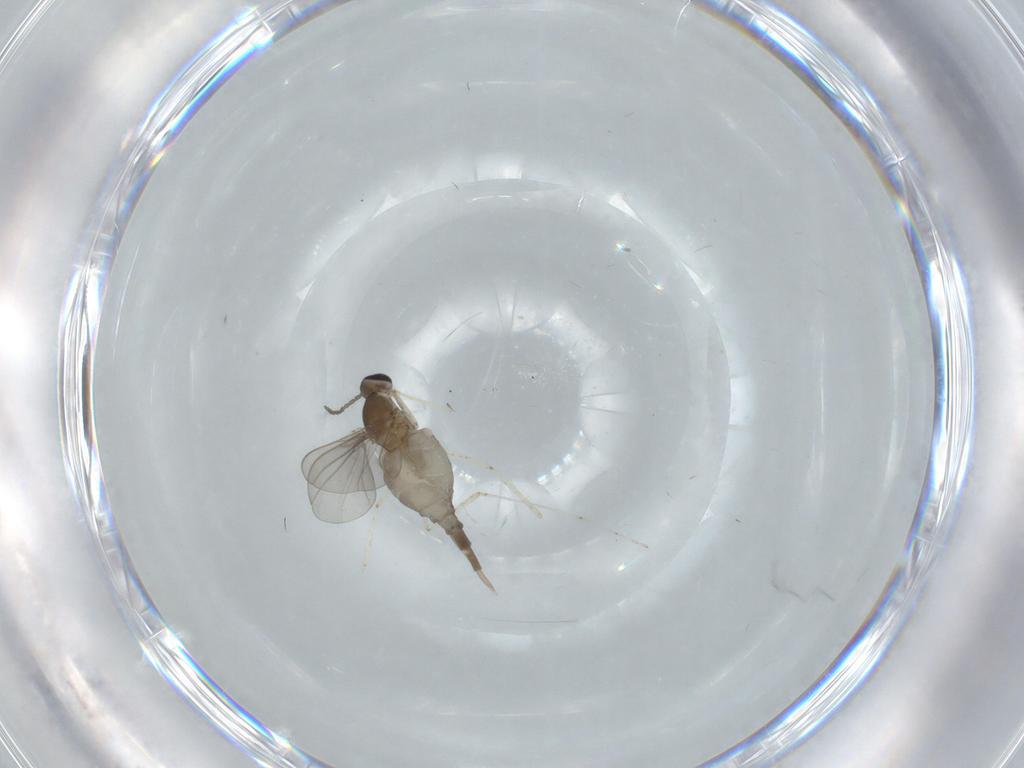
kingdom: Animalia
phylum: Arthropoda
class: Insecta
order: Diptera
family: Cecidomyiidae
